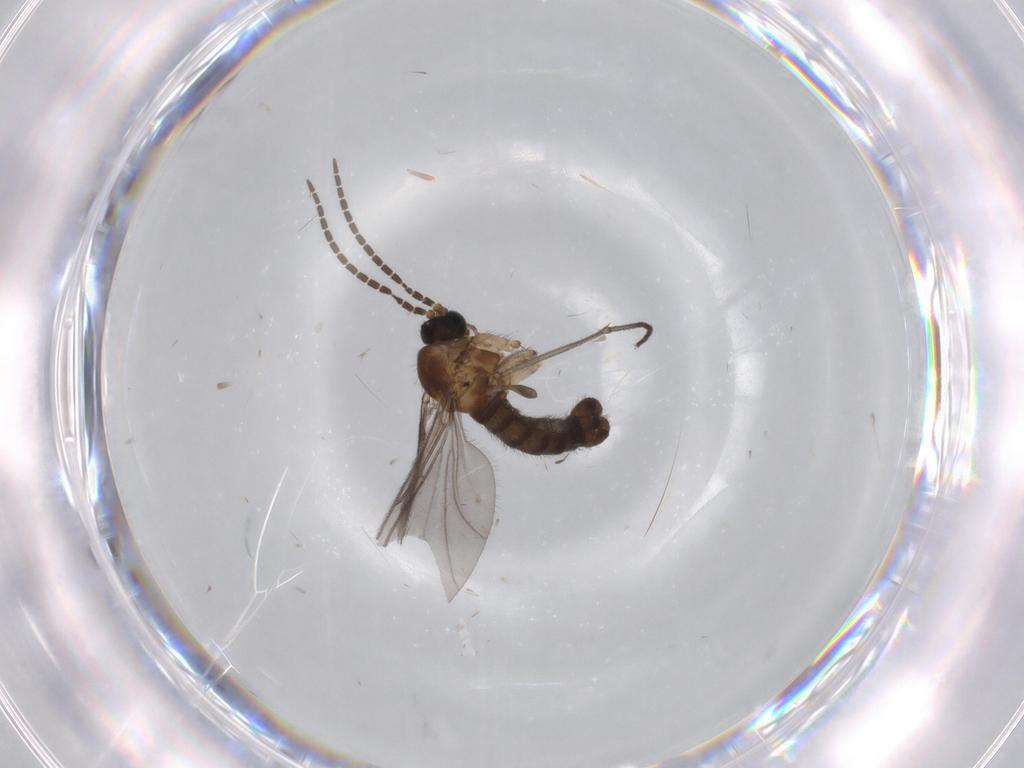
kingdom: Animalia
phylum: Arthropoda
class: Insecta
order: Diptera
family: Sciaridae
